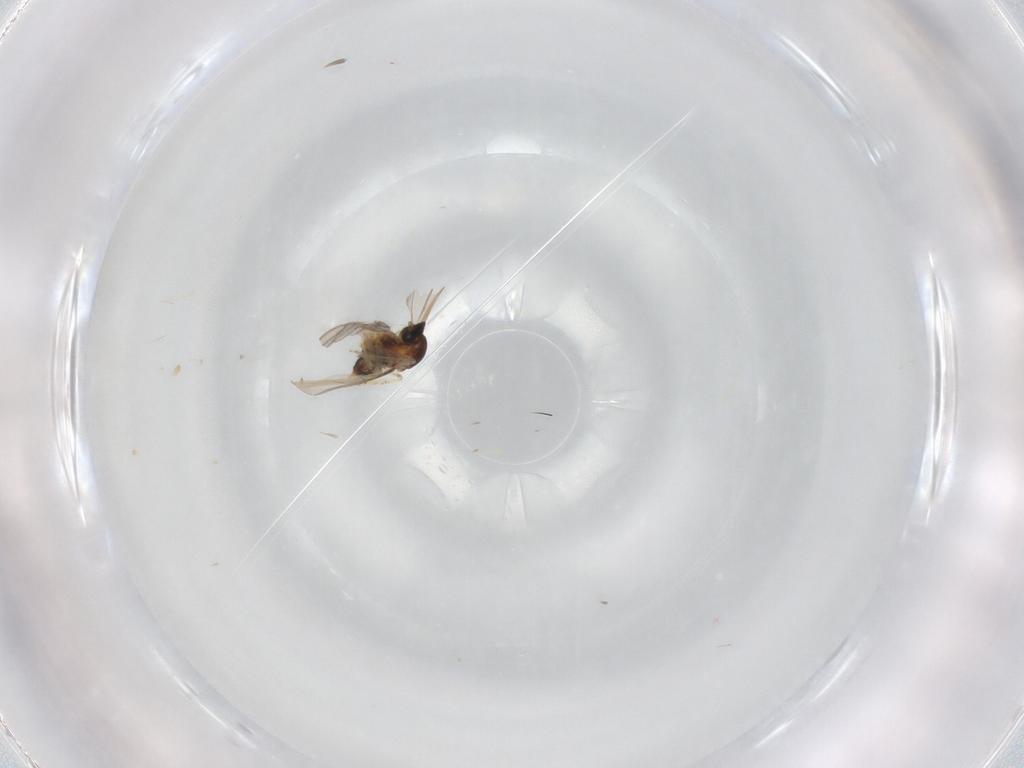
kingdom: Animalia
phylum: Arthropoda
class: Insecta
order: Diptera
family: Cecidomyiidae
